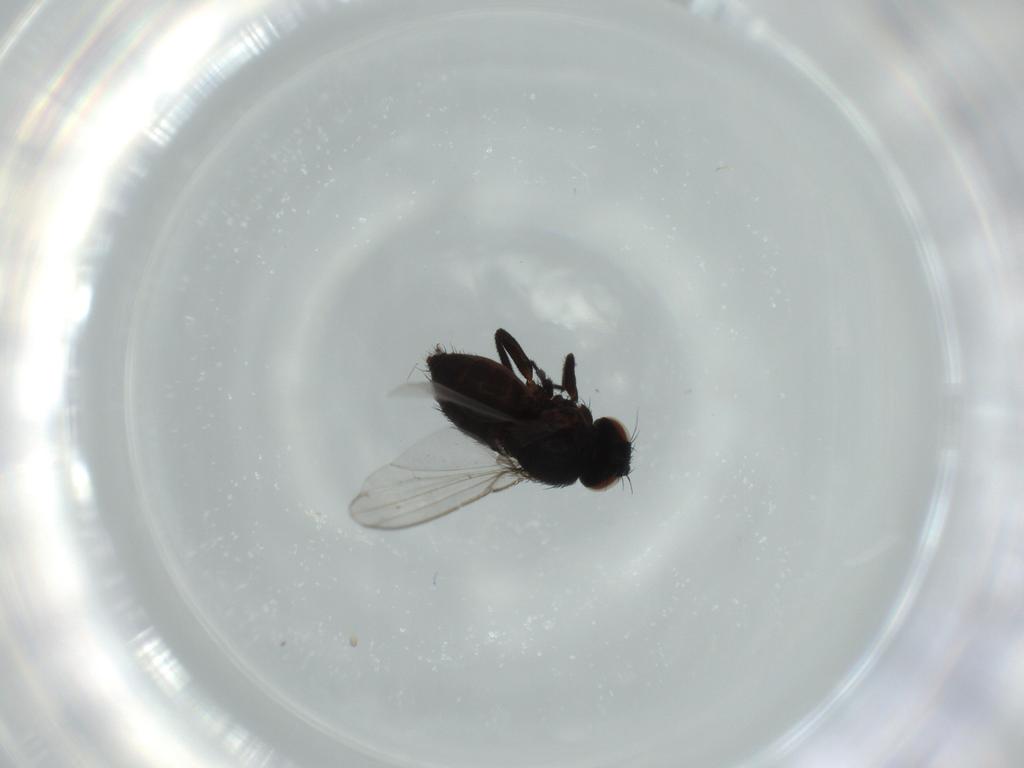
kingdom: Animalia
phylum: Arthropoda
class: Insecta
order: Diptera
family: Milichiidae
